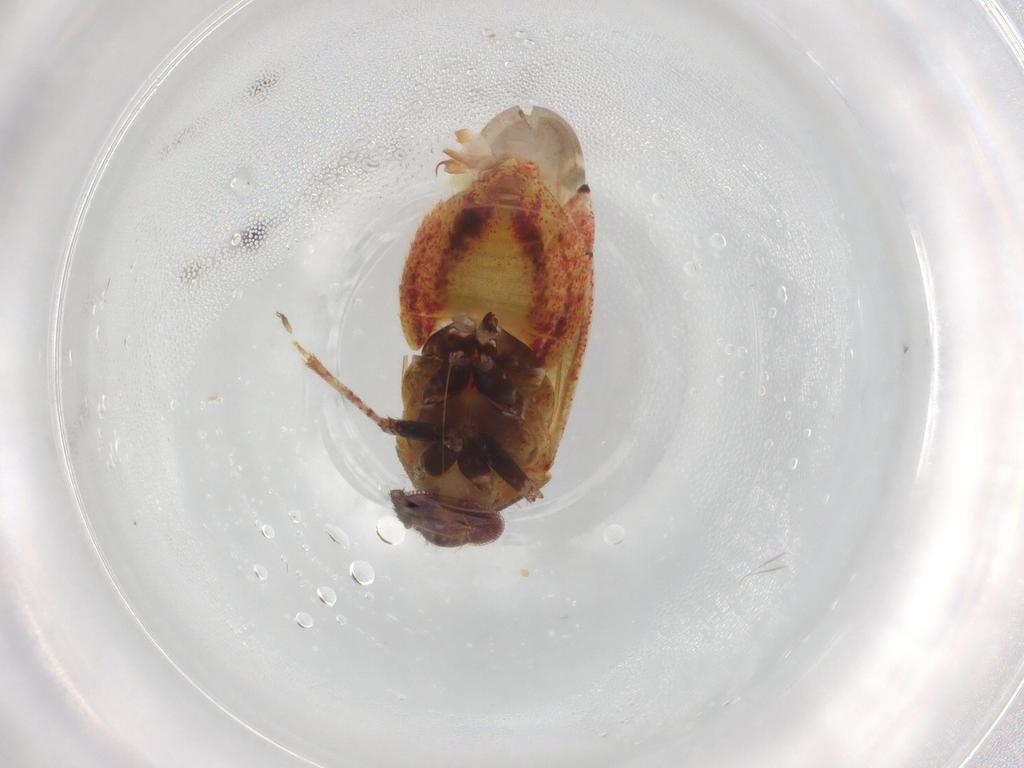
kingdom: Animalia
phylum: Arthropoda
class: Insecta
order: Hemiptera
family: Miridae
